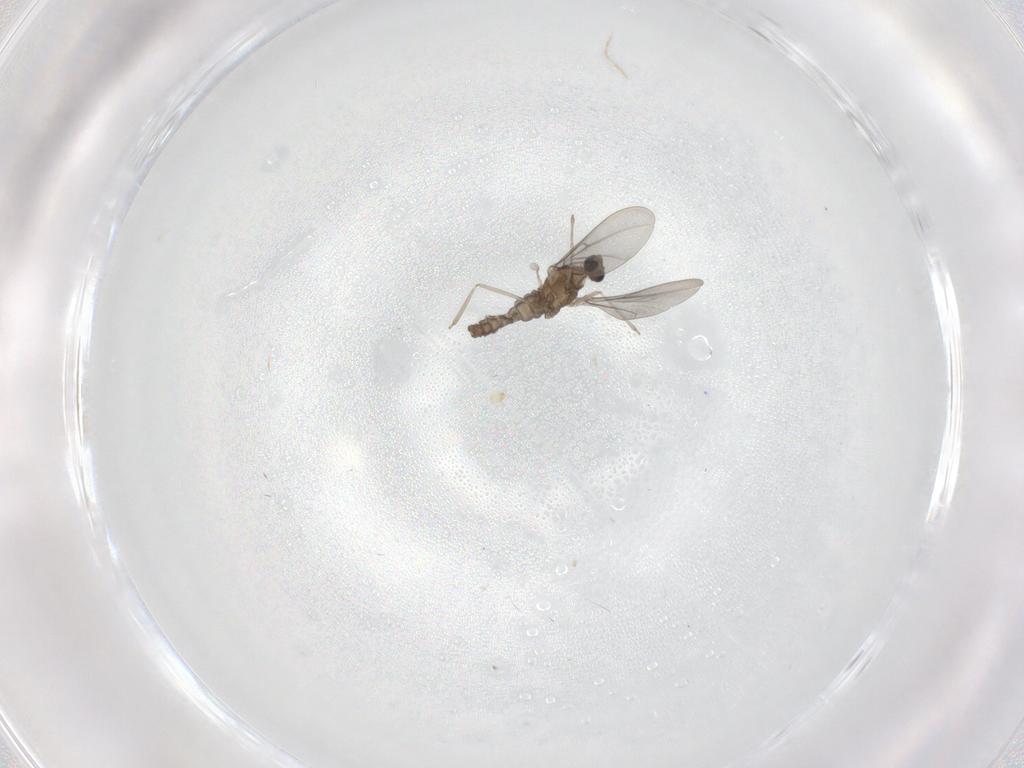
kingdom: Animalia
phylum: Arthropoda
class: Insecta
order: Diptera
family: Cecidomyiidae
